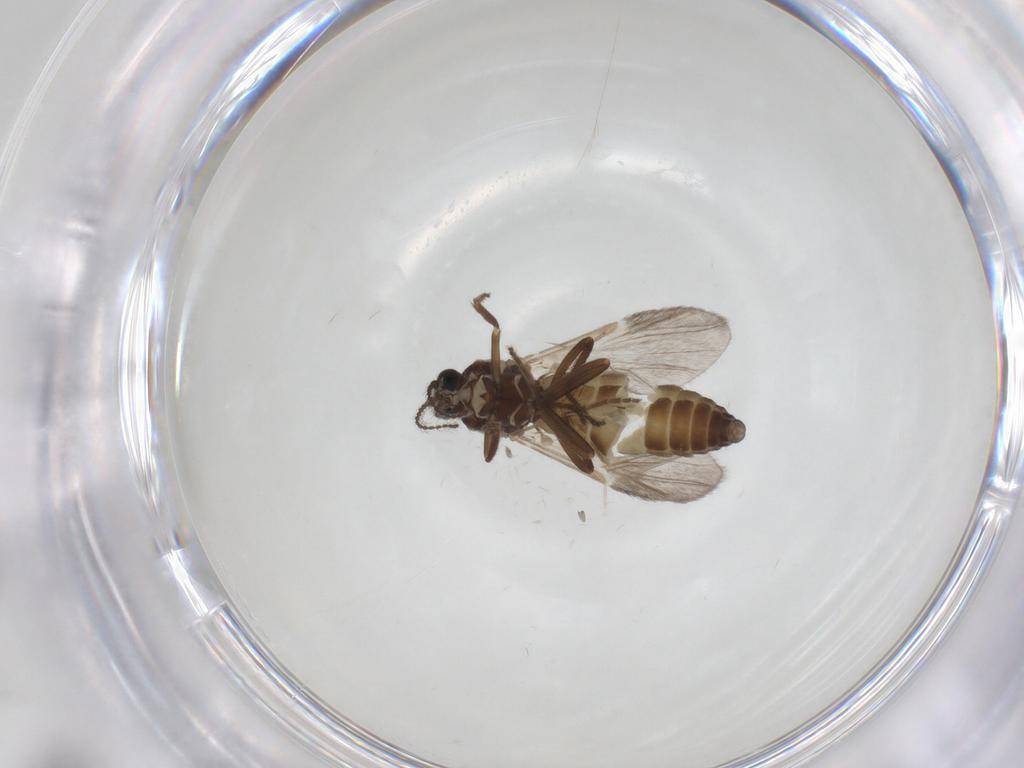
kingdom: Animalia
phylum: Arthropoda
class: Insecta
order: Diptera
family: Ceratopogonidae
